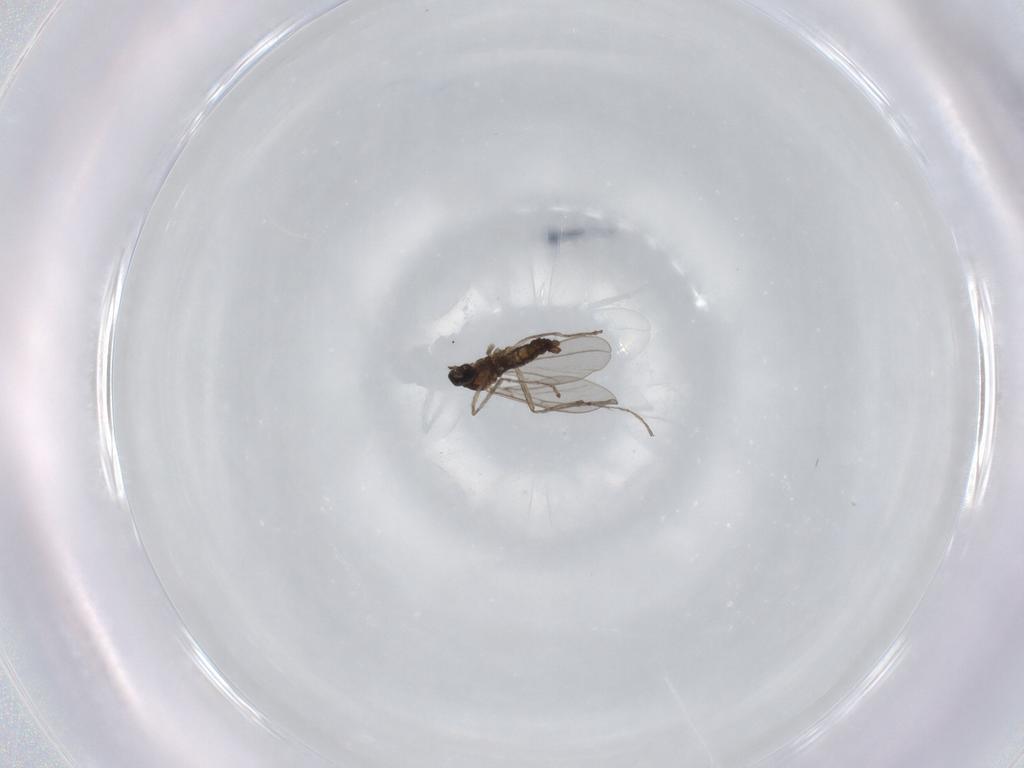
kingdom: Animalia
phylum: Arthropoda
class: Insecta
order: Diptera
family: Cecidomyiidae
